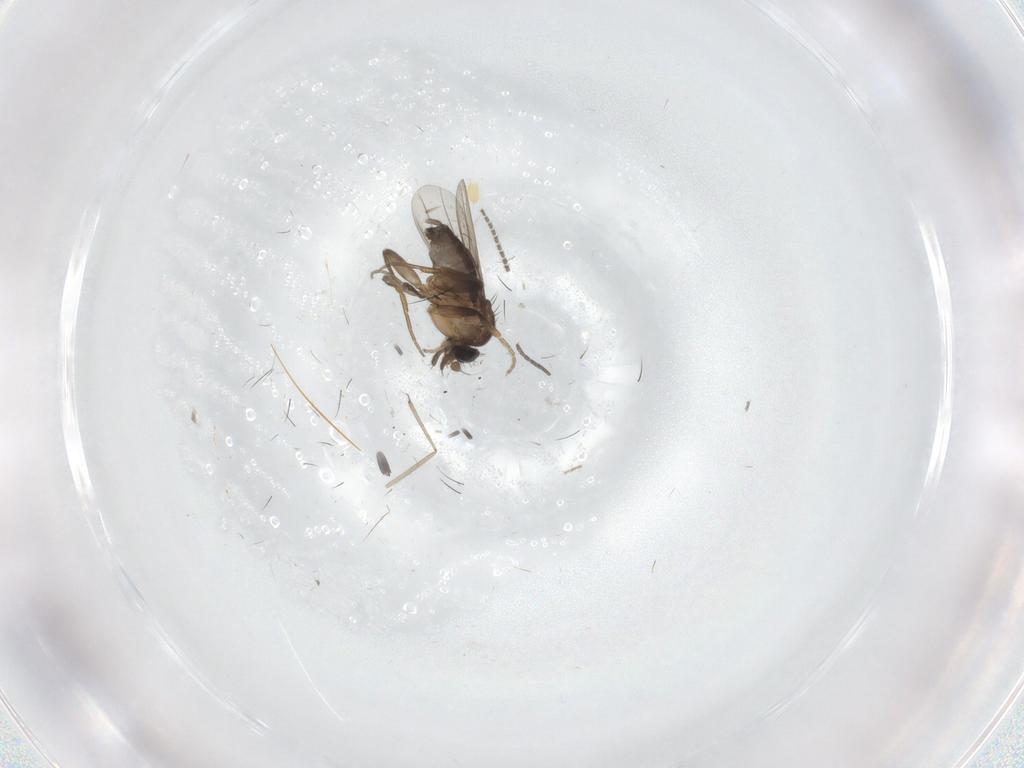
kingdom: Animalia
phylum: Arthropoda
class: Insecta
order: Diptera
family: Phoridae
